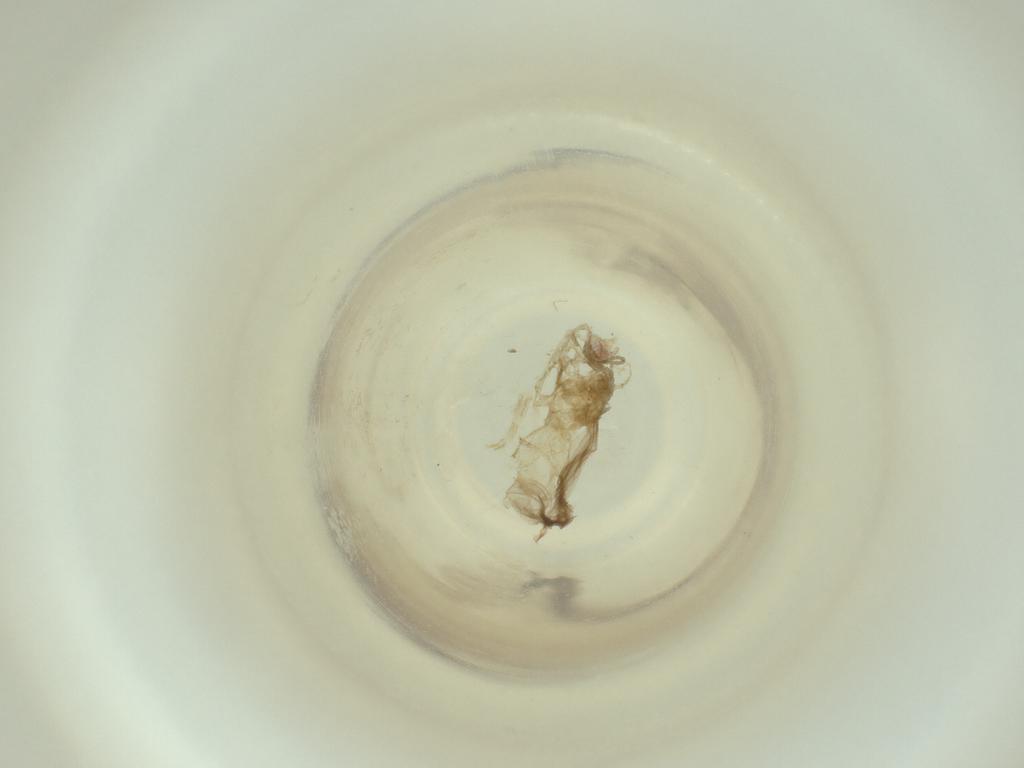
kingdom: Animalia
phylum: Arthropoda
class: Insecta
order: Diptera
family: Cecidomyiidae
